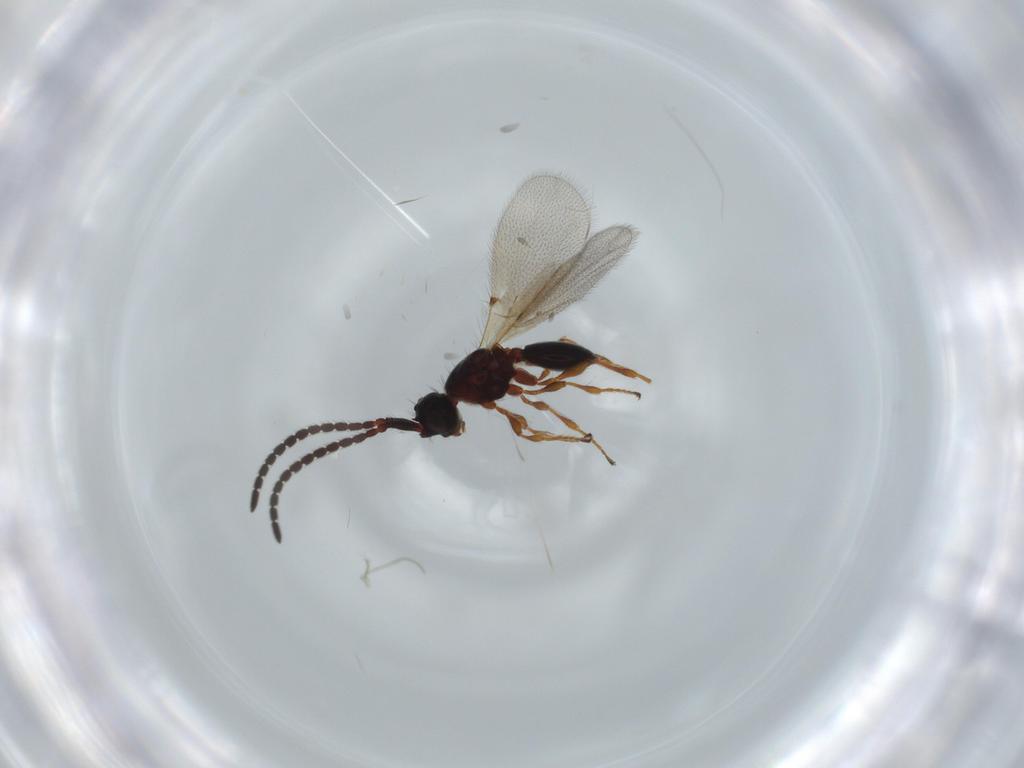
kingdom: Animalia
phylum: Arthropoda
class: Insecta
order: Hymenoptera
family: Diapriidae
